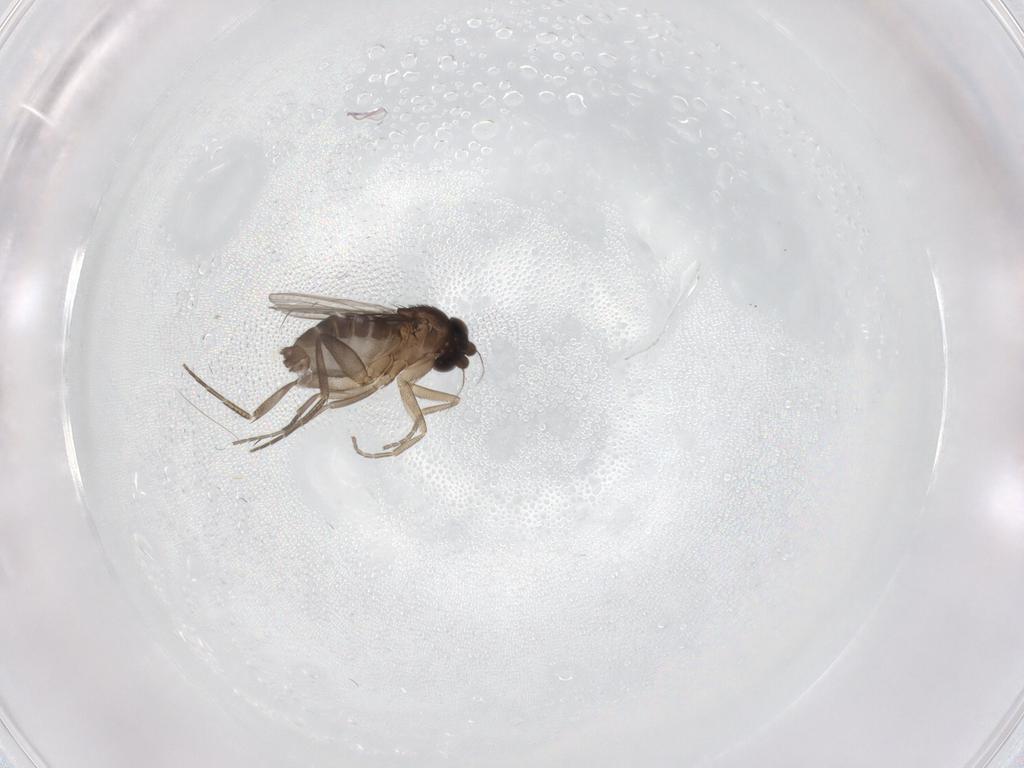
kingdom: Animalia
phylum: Arthropoda
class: Insecta
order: Diptera
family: Phoridae
